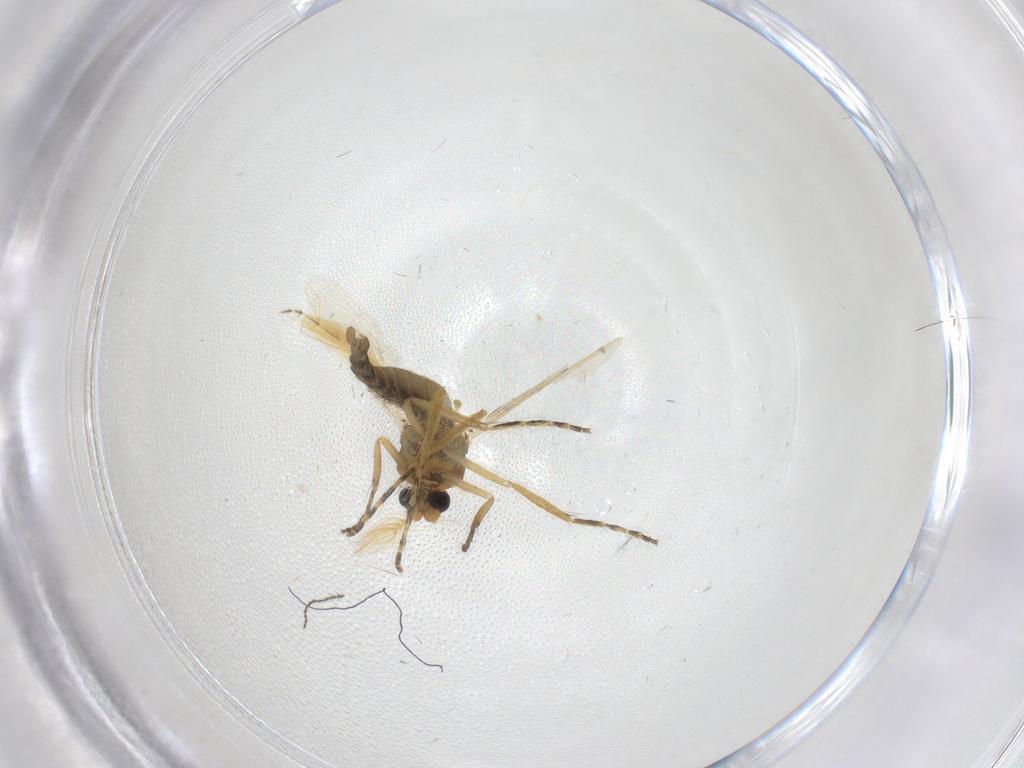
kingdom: Animalia
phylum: Arthropoda
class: Insecta
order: Diptera
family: Ceratopogonidae
